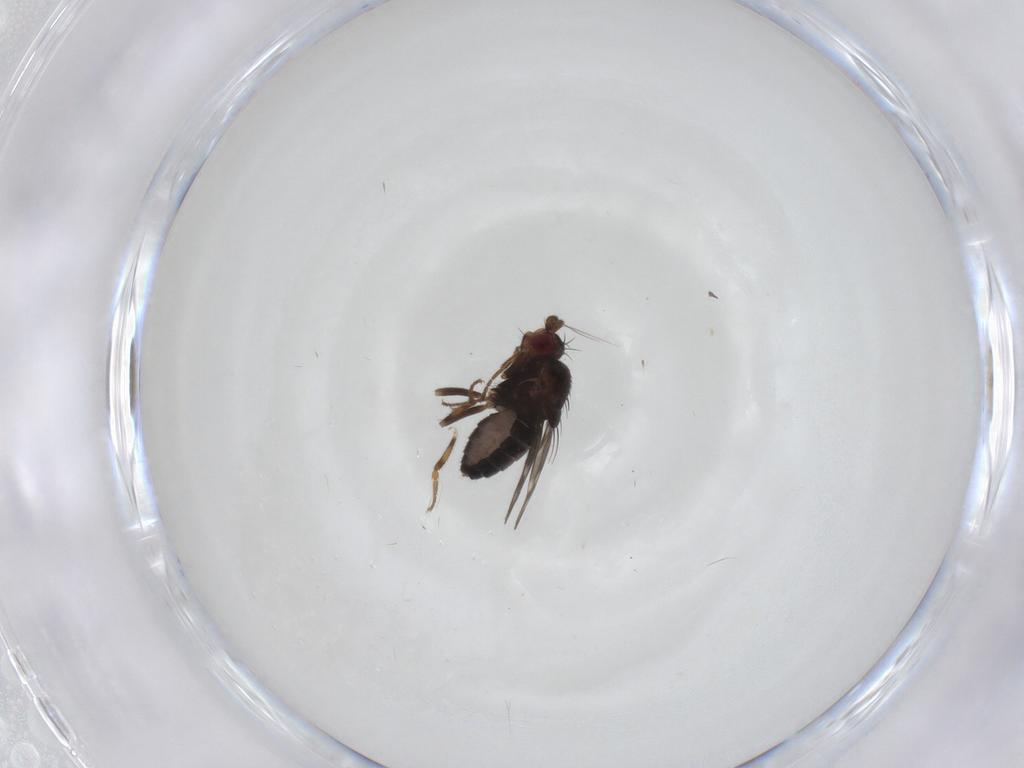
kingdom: Animalia
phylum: Arthropoda
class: Insecta
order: Diptera
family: Sphaeroceridae
